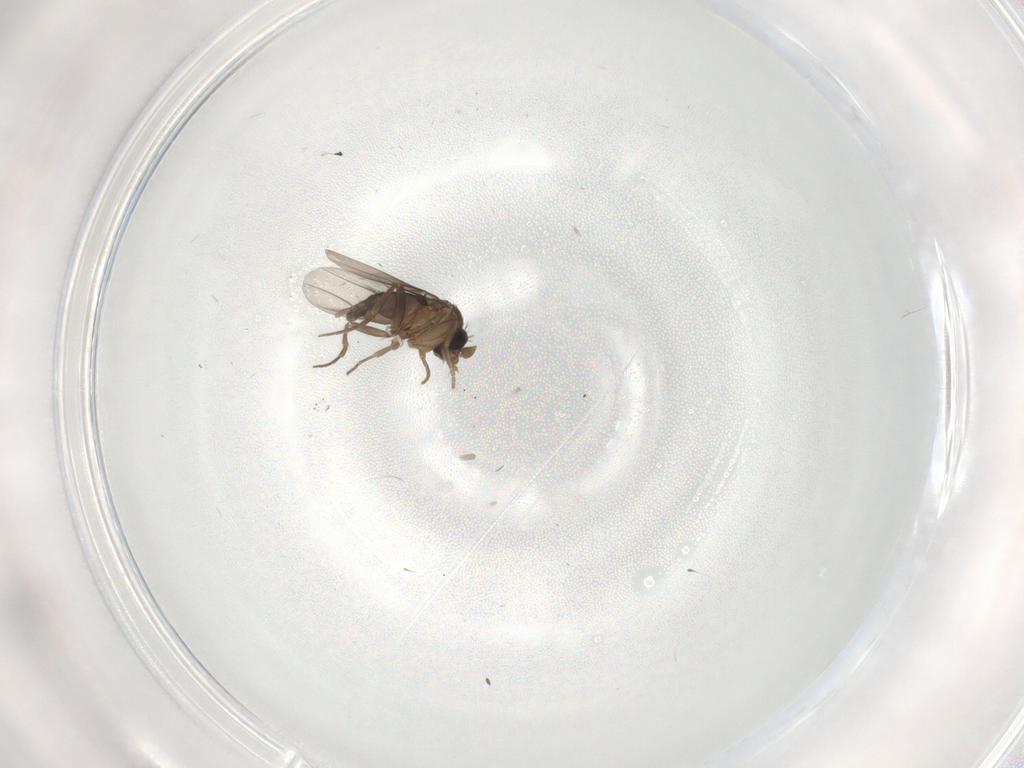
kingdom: Animalia
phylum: Arthropoda
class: Insecta
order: Diptera
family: Phoridae
